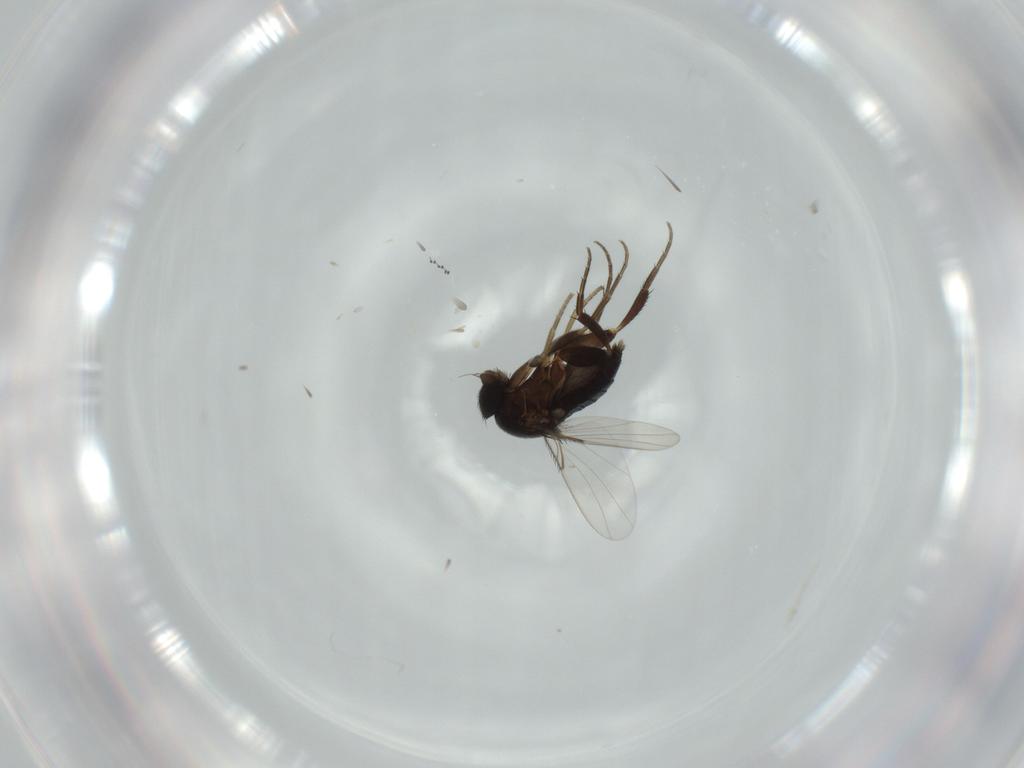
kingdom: Animalia
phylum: Arthropoda
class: Insecta
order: Diptera
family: Phoridae
